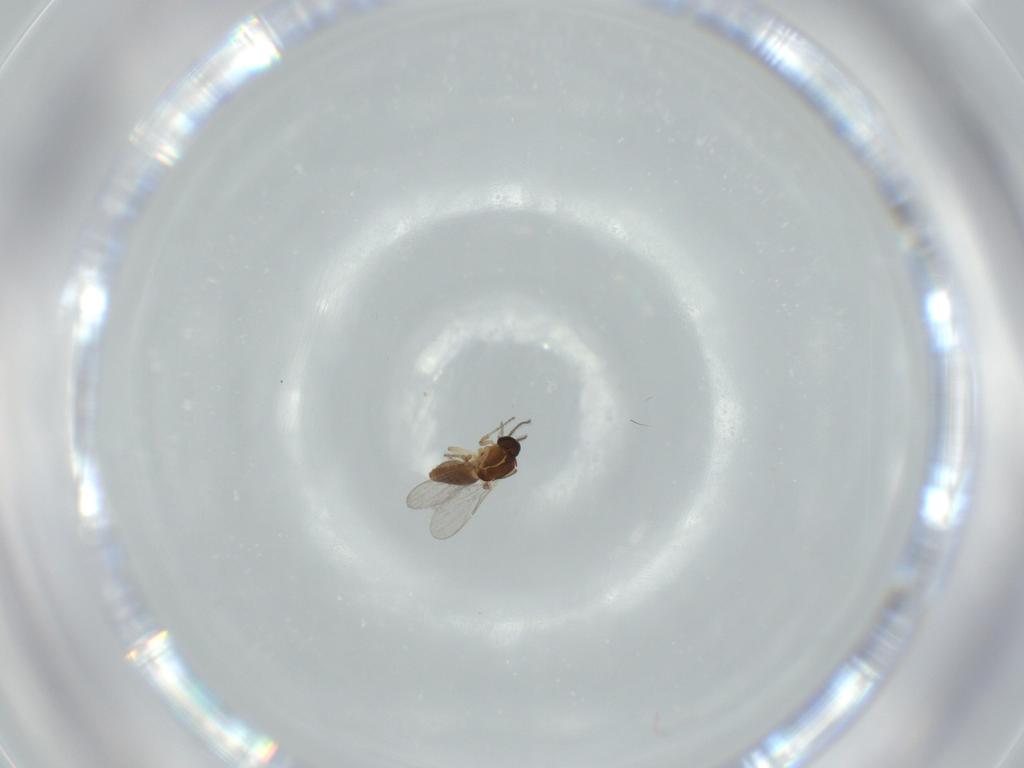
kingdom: Animalia
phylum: Arthropoda
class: Insecta
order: Diptera
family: Ceratopogonidae
